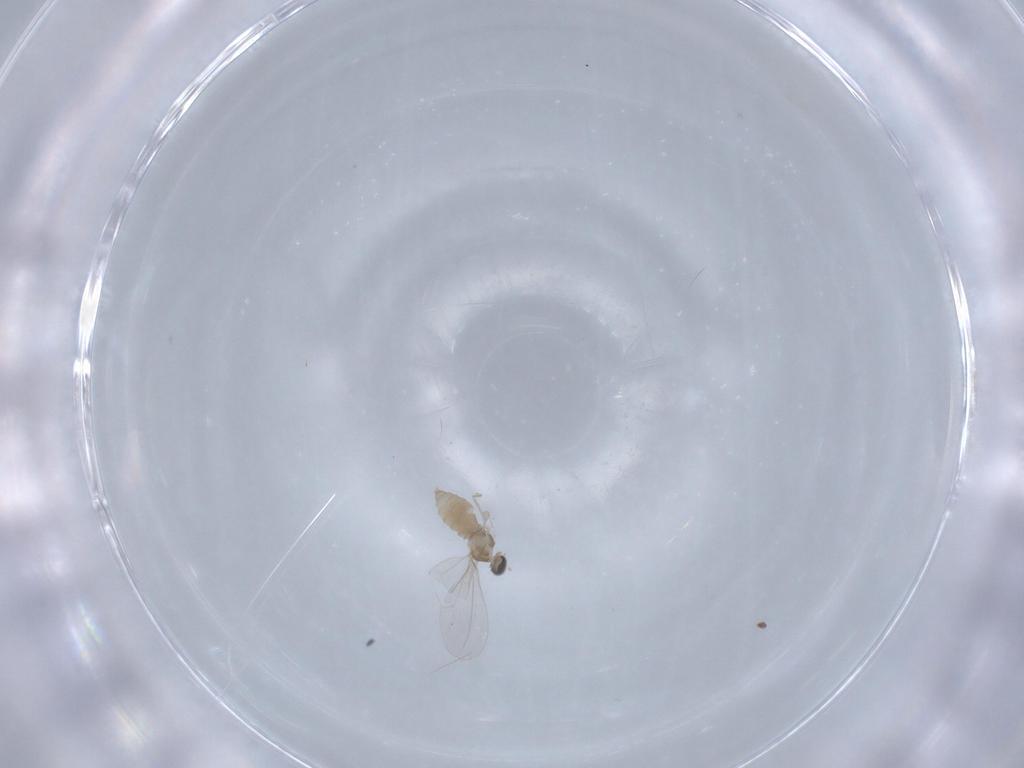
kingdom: Animalia
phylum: Arthropoda
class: Insecta
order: Diptera
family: Cecidomyiidae
